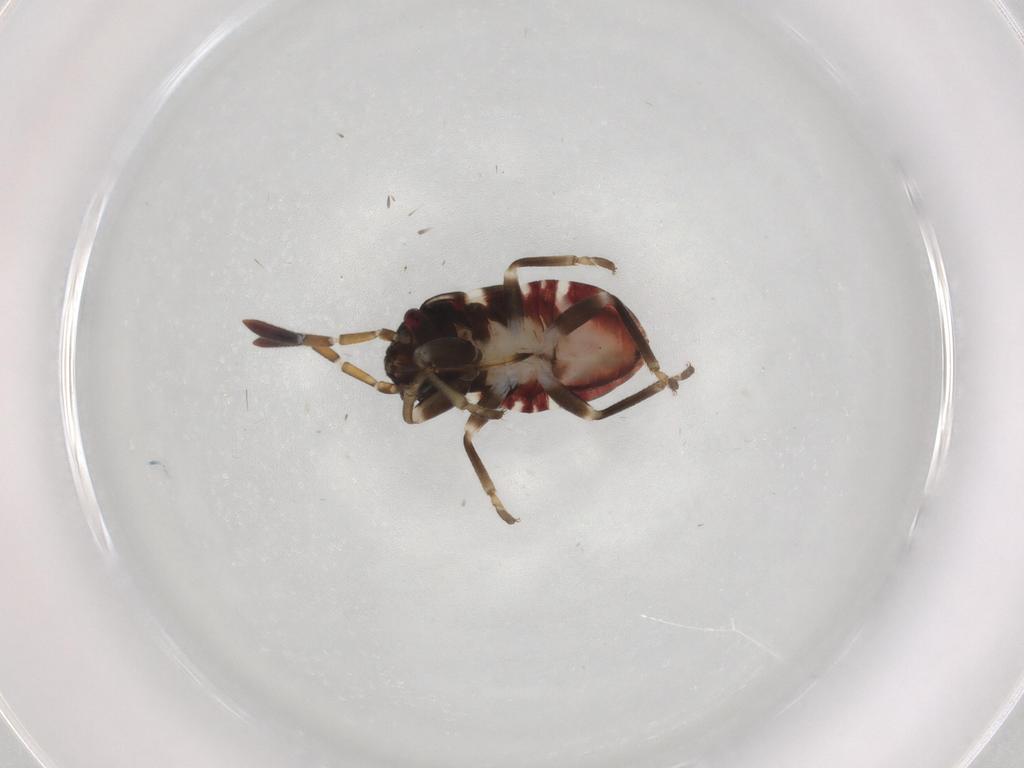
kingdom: Animalia
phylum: Arthropoda
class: Insecta
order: Hemiptera
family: Rhyparochromidae
